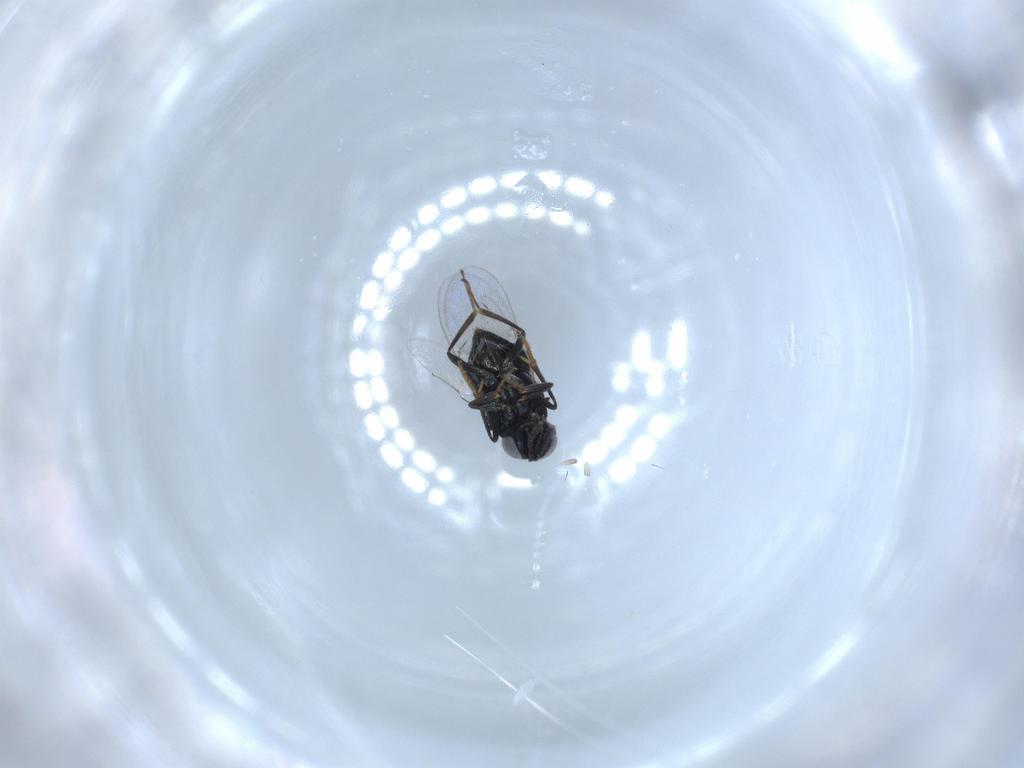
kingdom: Animalia
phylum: Arthropoda
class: Insecta
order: Hymenoptera
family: Encyrtidae
